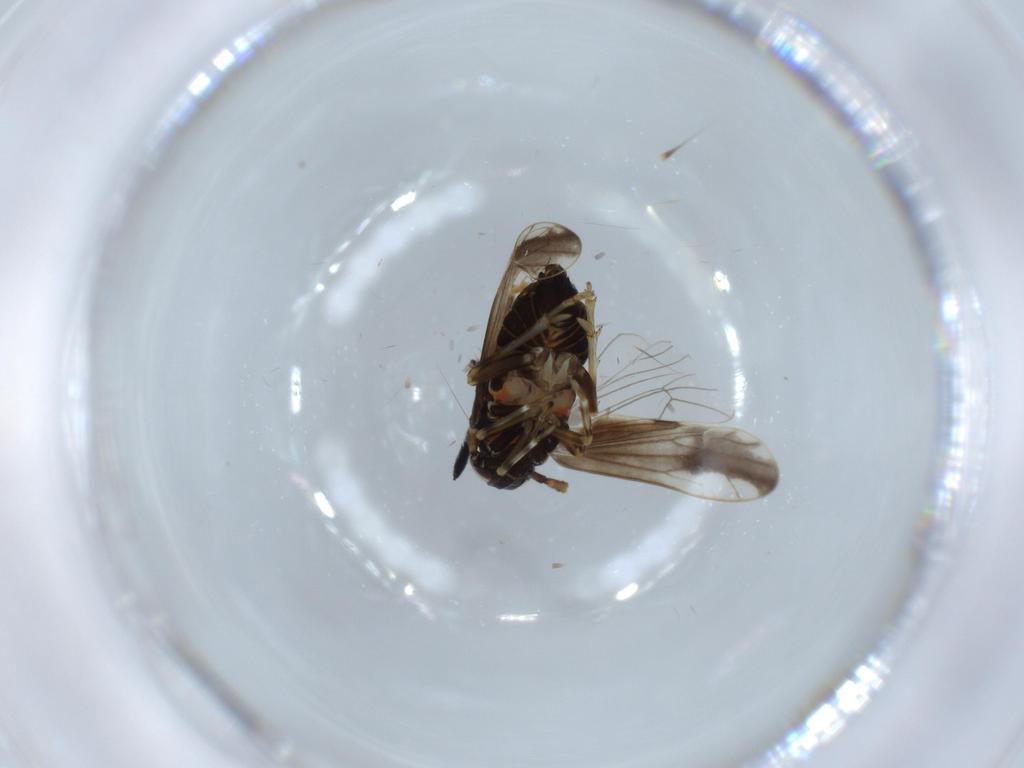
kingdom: Animalia
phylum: Arthropoda
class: Insecta
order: Hemiptera
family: Delphacidae
